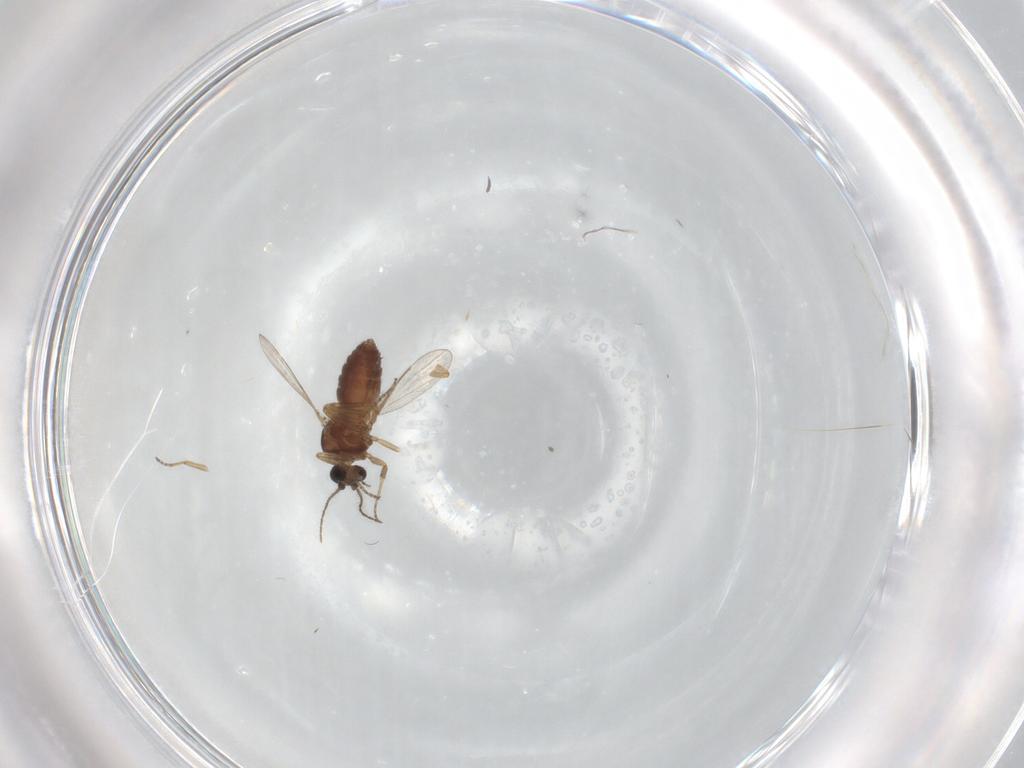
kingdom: Animalia
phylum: Arthropoda
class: Insecta
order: Diptera
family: Ceratopogonidae
